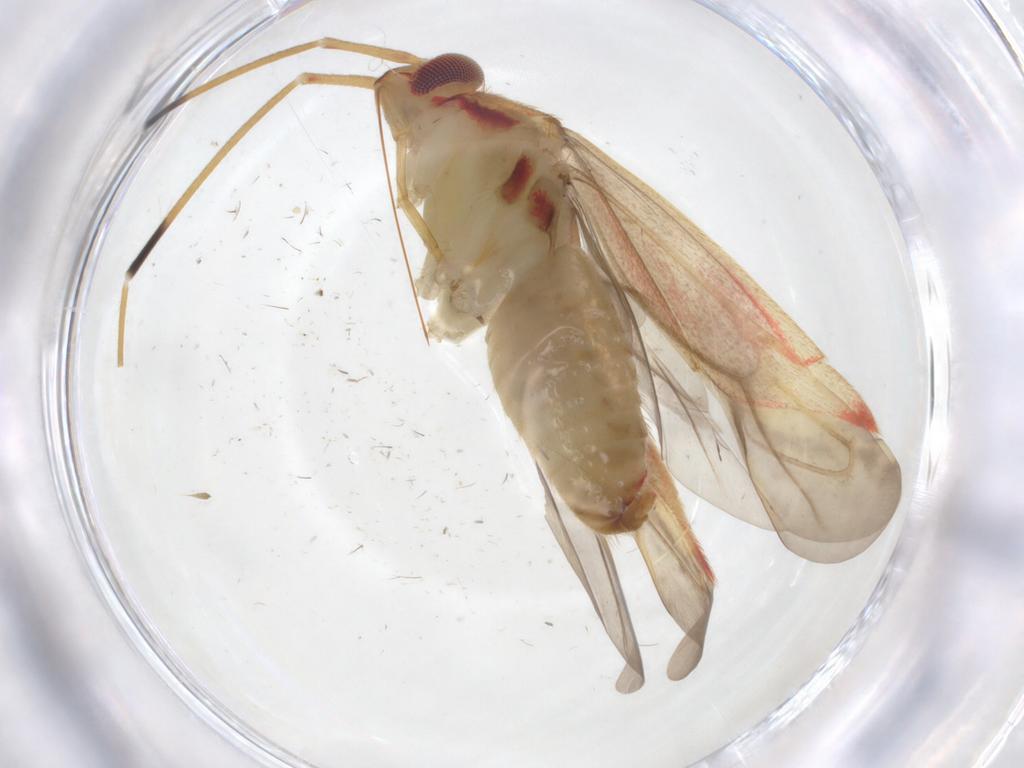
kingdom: Animalia
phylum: Arthropoda
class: Insecta
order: Hemiptera
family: Miridae
